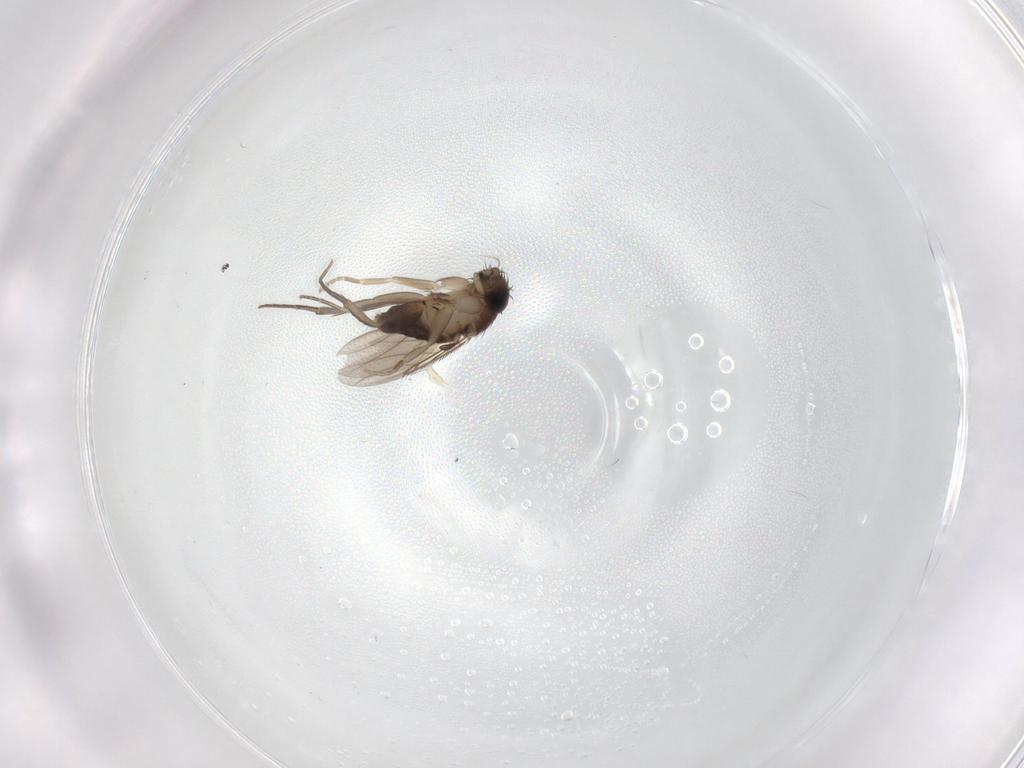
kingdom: Animalia
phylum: Arthropoda
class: Insecta
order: Diptera
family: Phoridae
